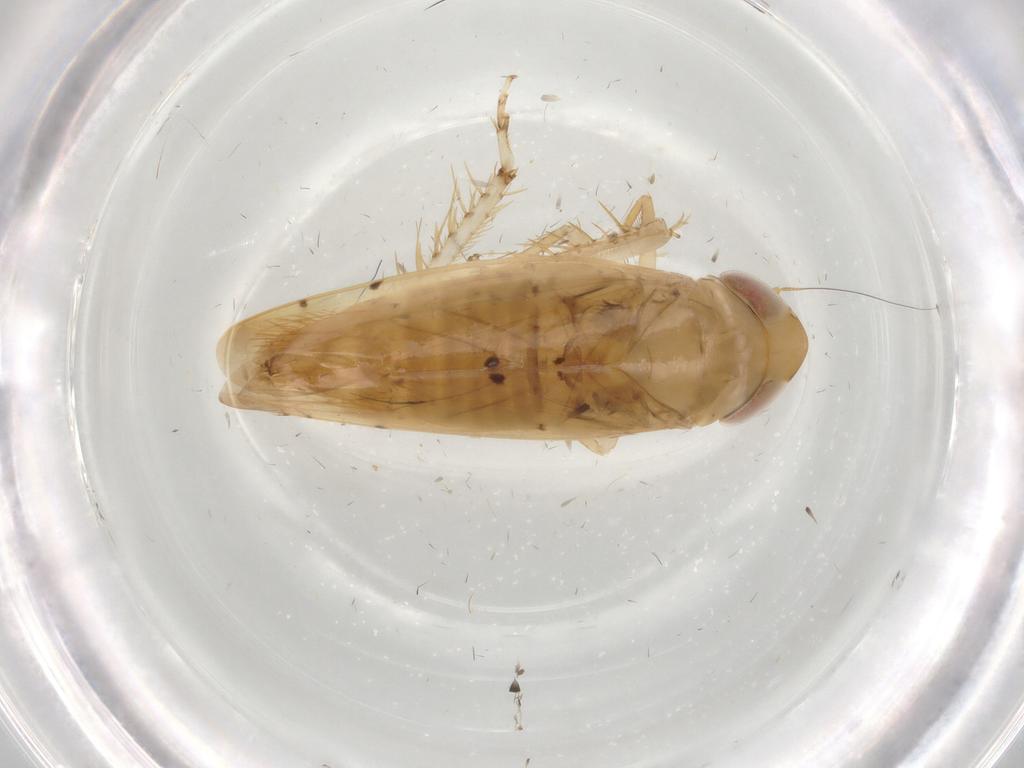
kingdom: Animalia
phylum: Arthropoda
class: Insecta
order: Hemiptera
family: Cicadellidae
